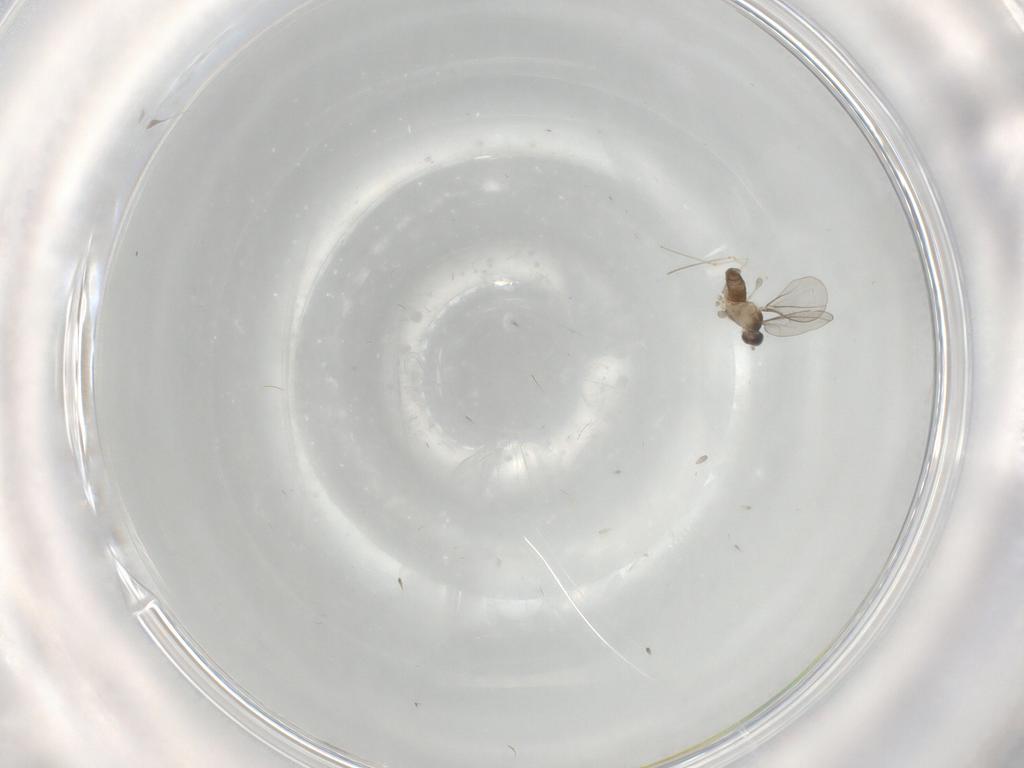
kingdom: Animalia
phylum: Arthropoda
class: Insecta
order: Diptera
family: Cecidomyiidae
